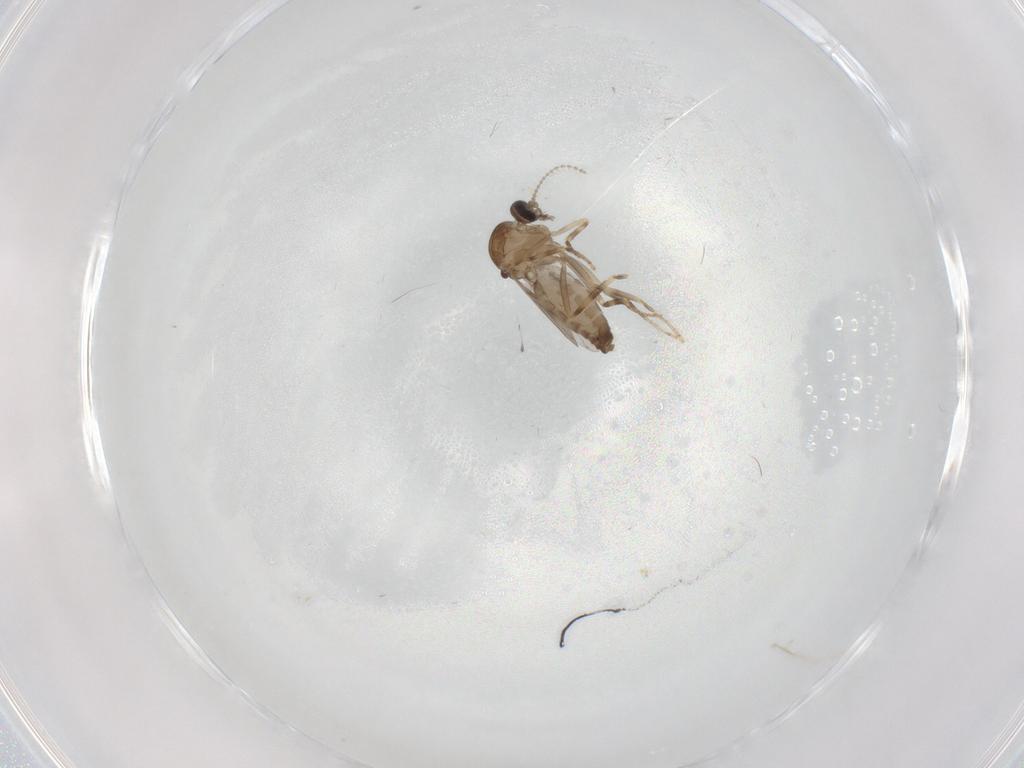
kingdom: Animalia
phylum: Arthropoda
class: Insecta
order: Diptera
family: Ceratopogonidae
